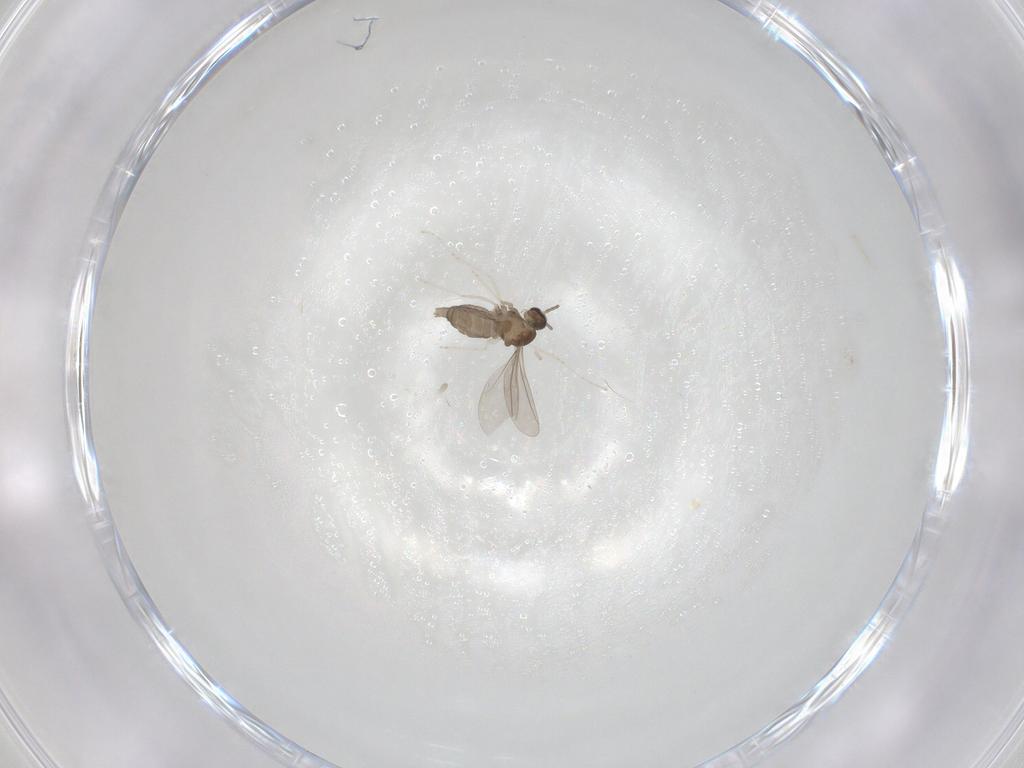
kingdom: Animalia
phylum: Arthropoda
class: Insecta
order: Diptera
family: Cecidomyiidae
